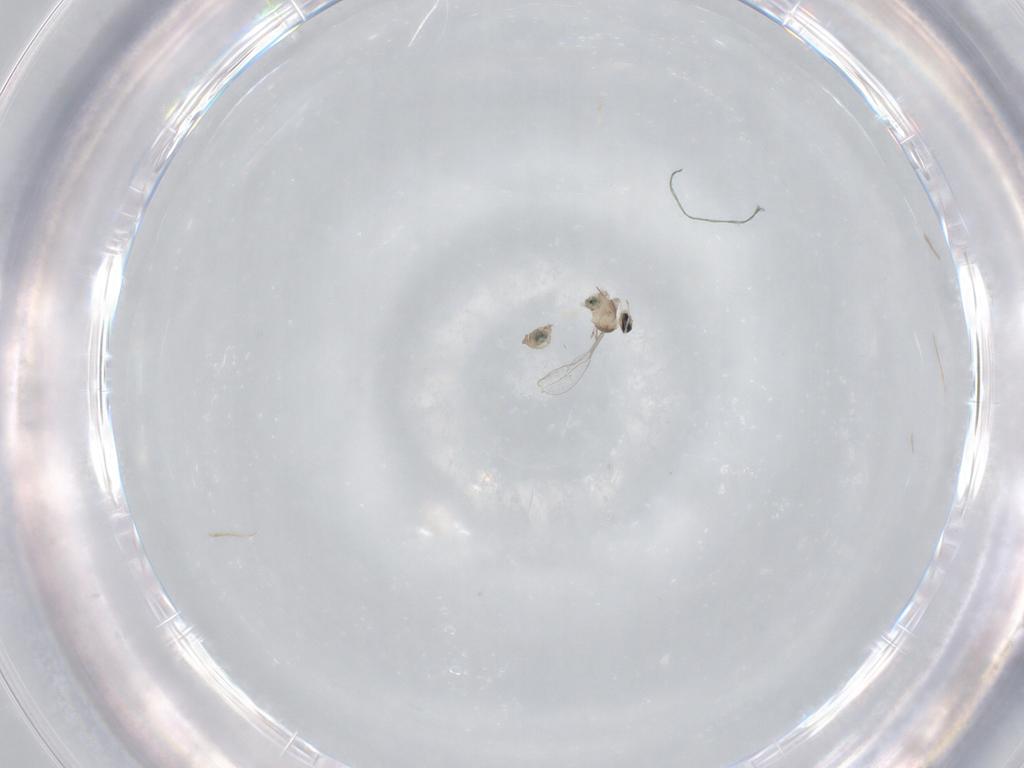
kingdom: Animalia
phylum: Arthropoda
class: Insecta
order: Diptera
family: Cecidomyiidae
